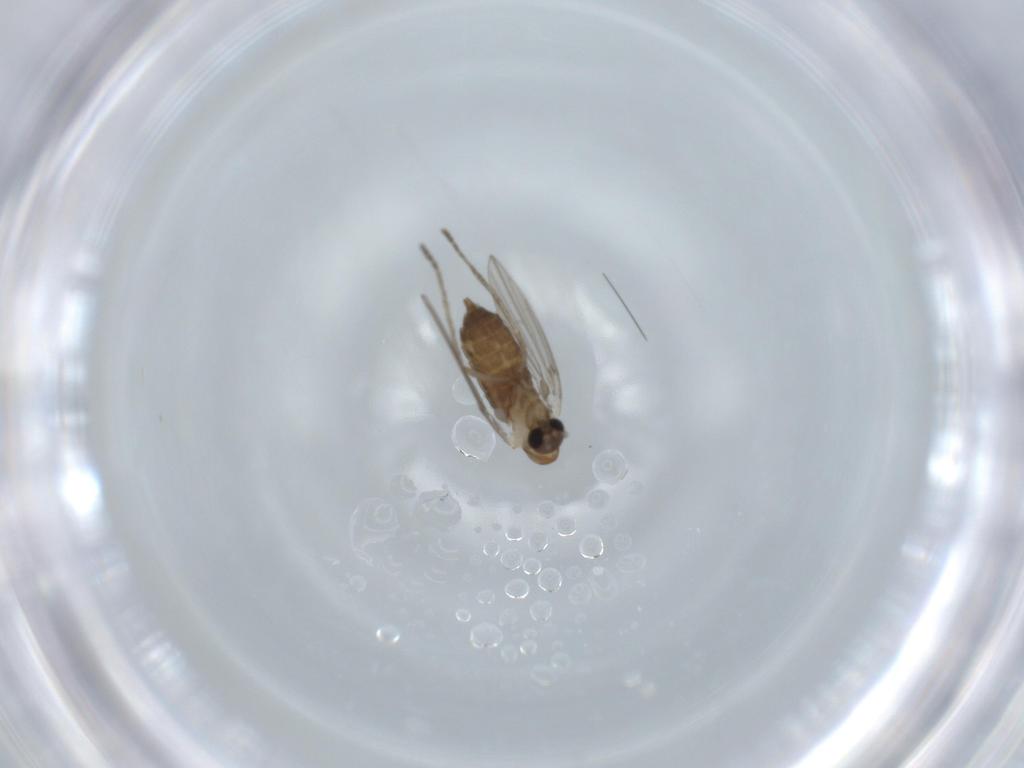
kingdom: Animalia
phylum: Arthropoda
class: Insecta
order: Diptera
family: Psychodidae
